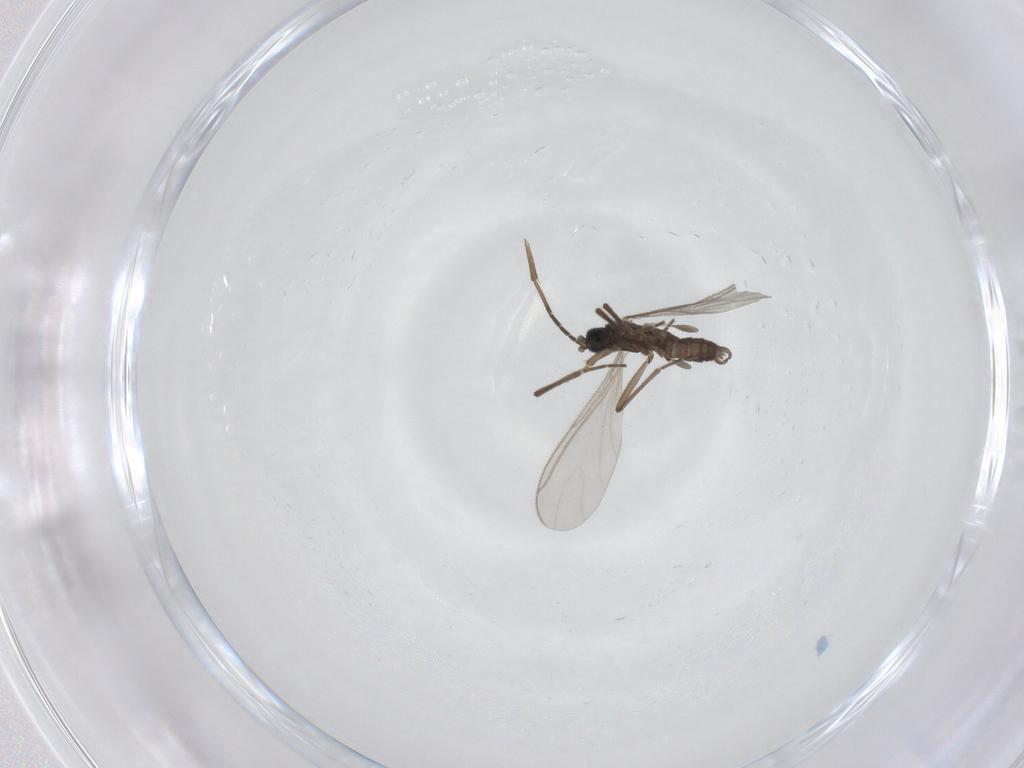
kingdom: Animalia
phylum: Arthropoda
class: Insecta
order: Diptera
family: Sciaridae
